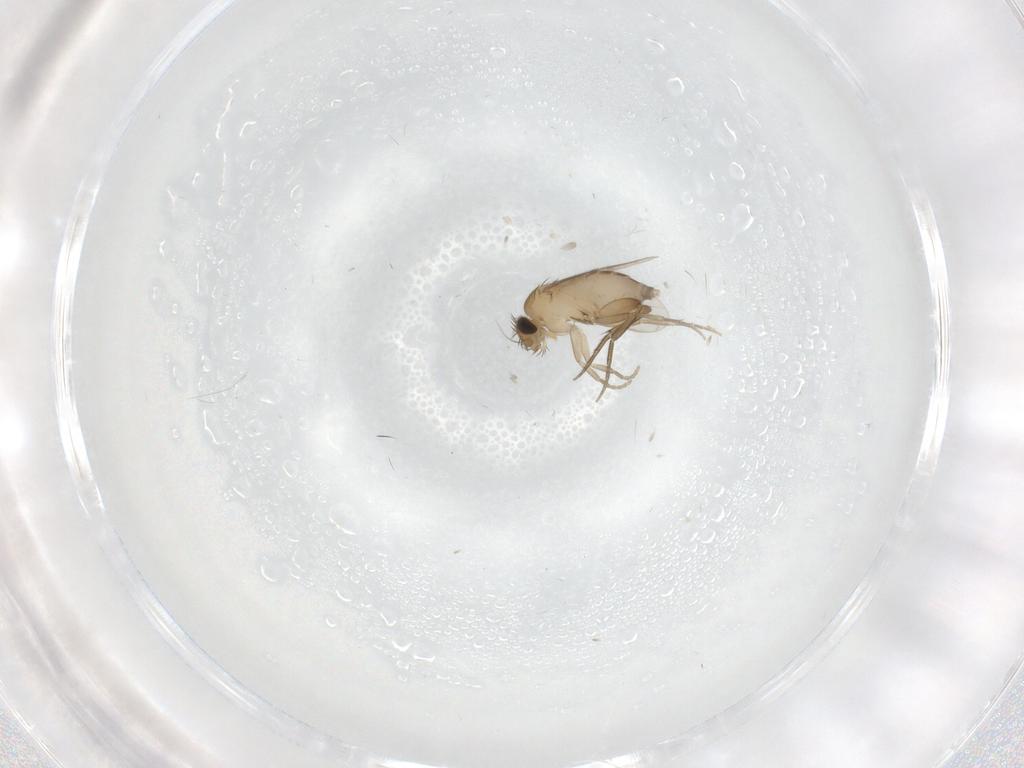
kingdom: Animalia
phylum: Arthropoda
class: Insecta
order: Diptera
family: Phoridae
